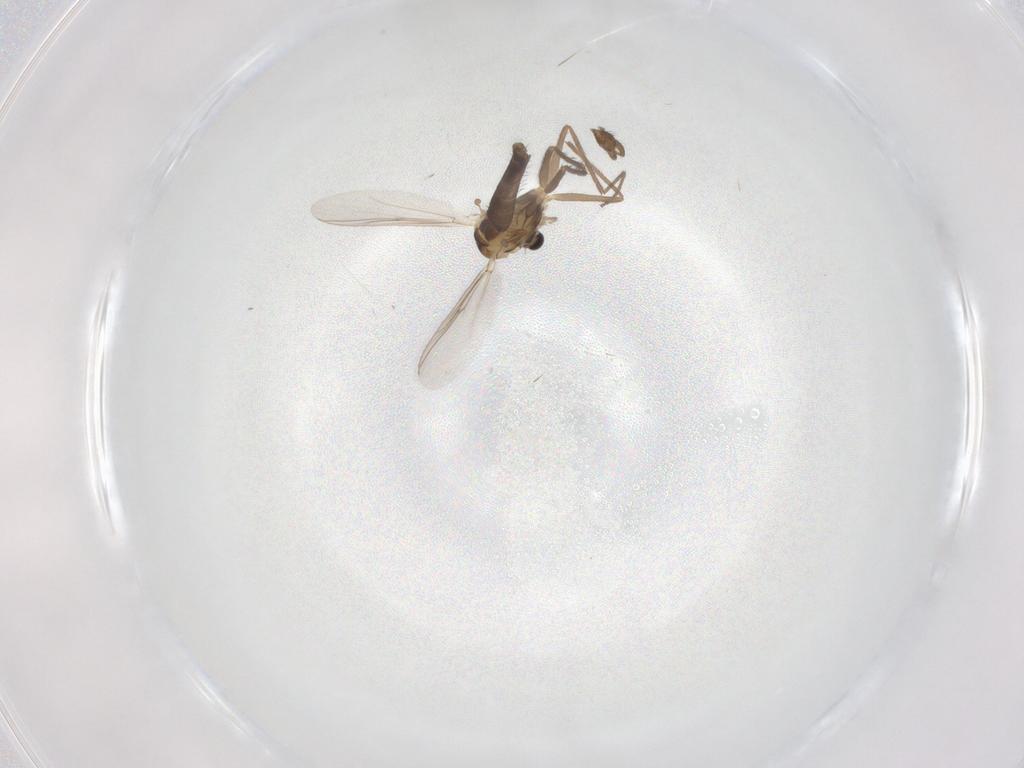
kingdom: Animalia
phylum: Arthropoda
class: Insecta
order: Diptera
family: Chironomidae
